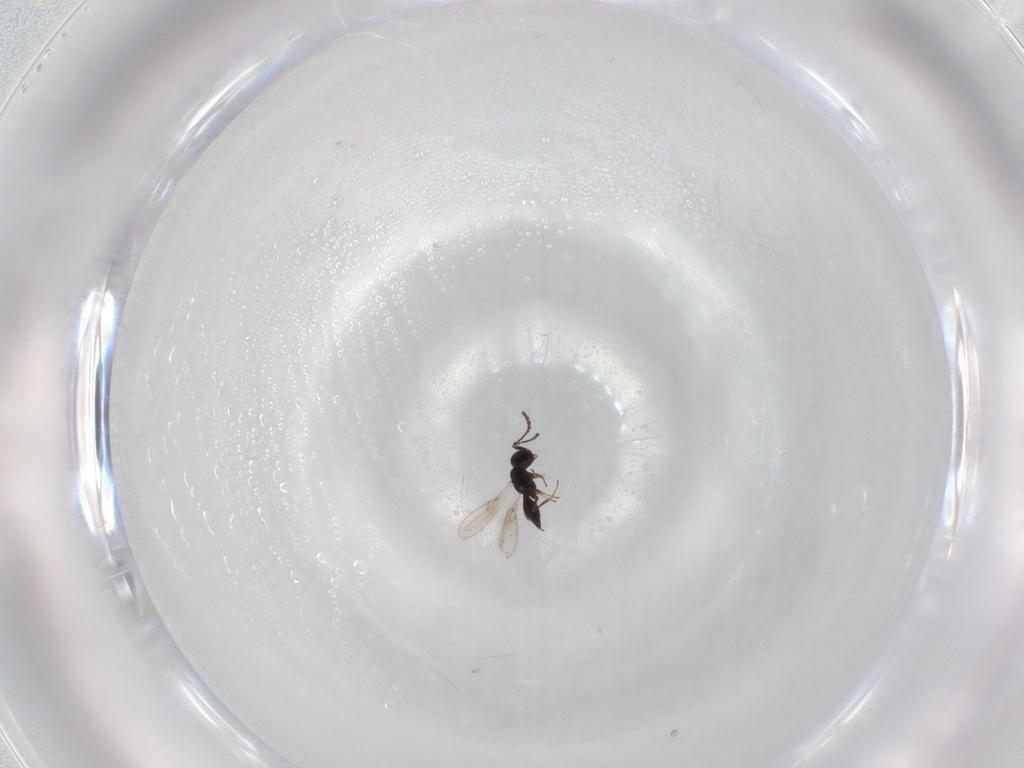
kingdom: Animalia
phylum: Arthropoda
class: Insecta
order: Hymenoptera
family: Scelionidae
